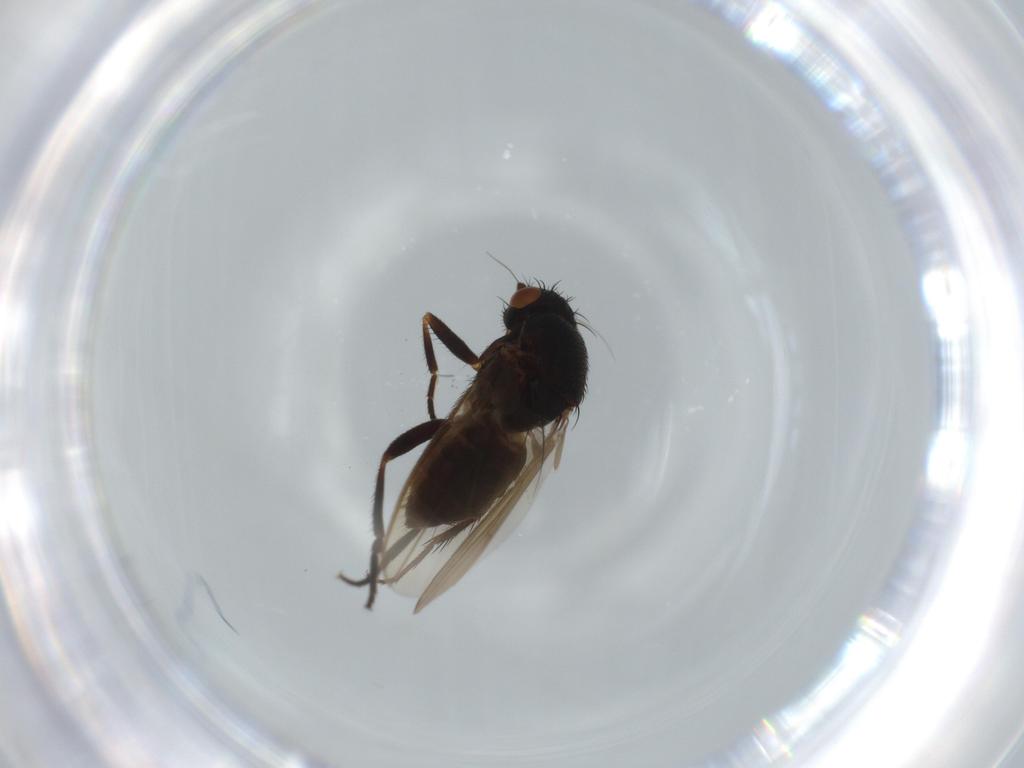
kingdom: Animalia
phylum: Arthropoda
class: Insecta
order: Diptera
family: Sphaeroceridae
